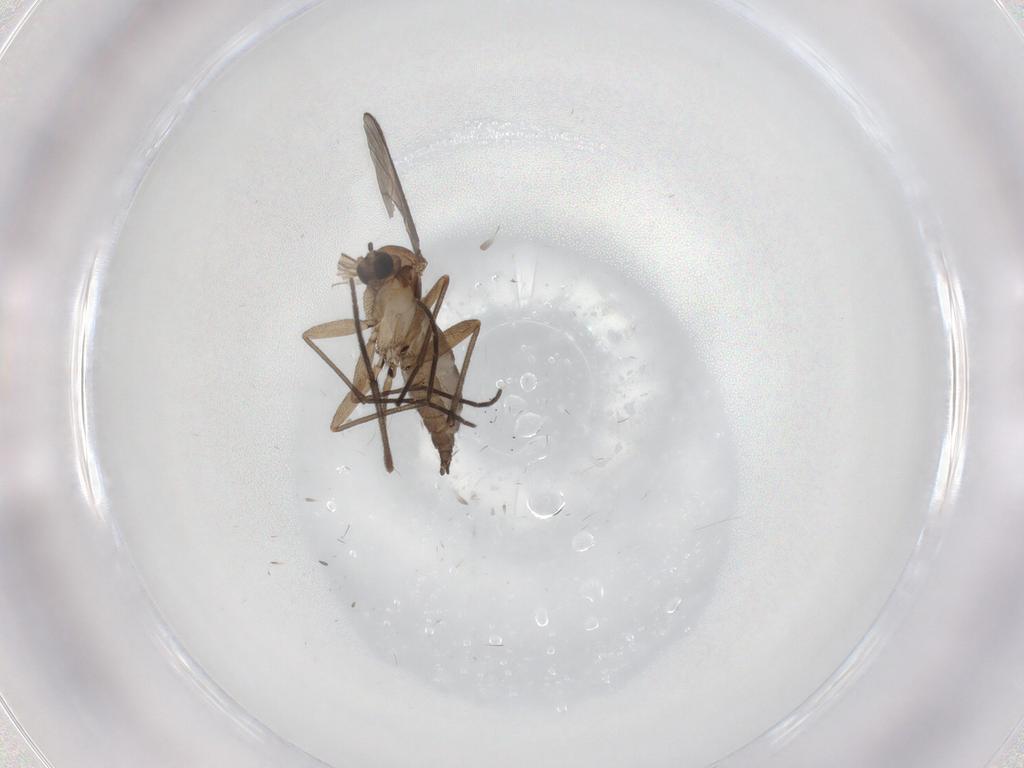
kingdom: Animalia
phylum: Arthropoda
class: Insecta
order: Diptera
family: Sciaridae
